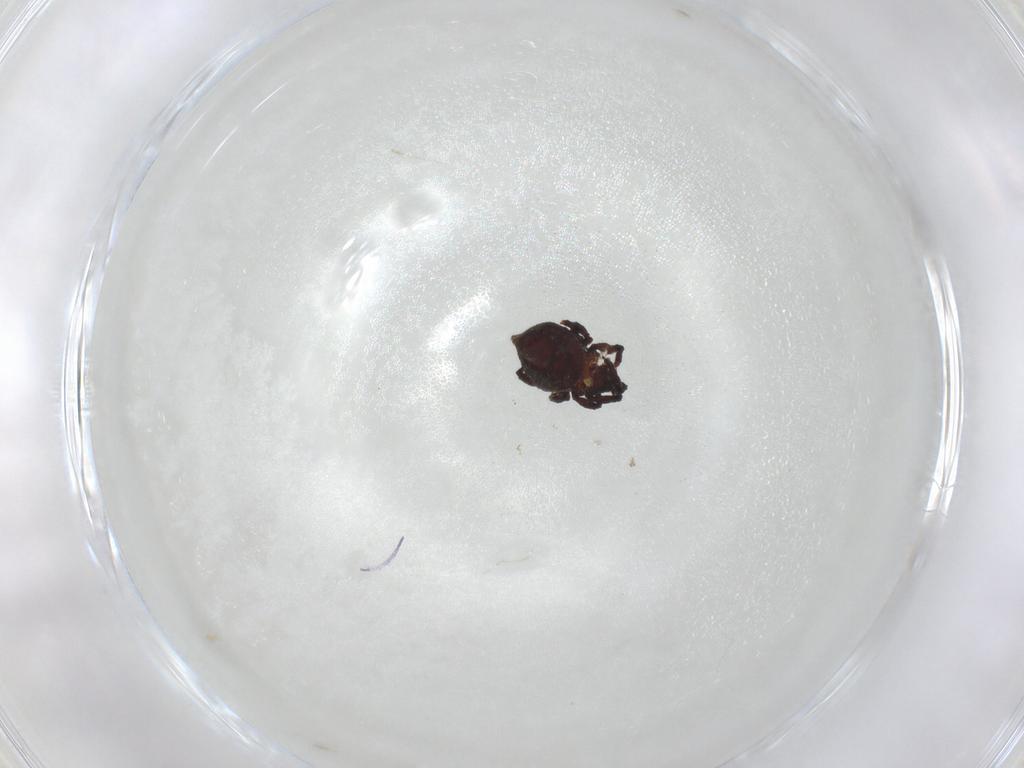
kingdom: Animalia
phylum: Arthropoda
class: Arachnida
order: Sarcoptiformes
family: Neoliodidae
